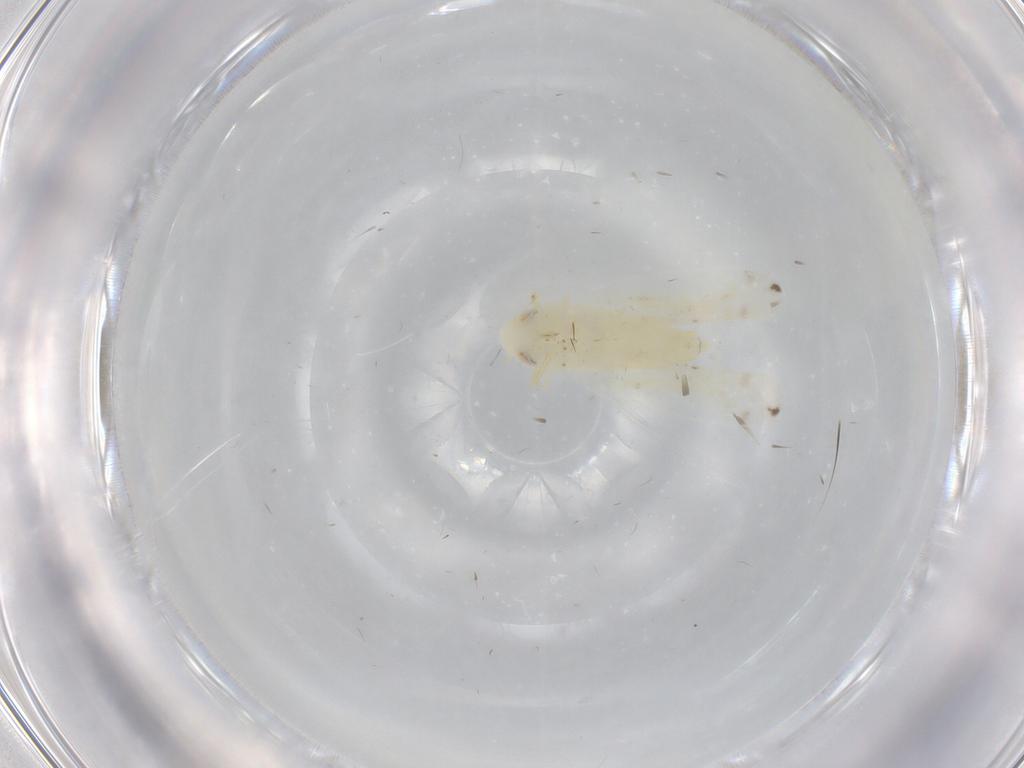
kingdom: Animalia
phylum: Arthropoda
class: Insecta
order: Hemiptera
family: Cicadellidae
